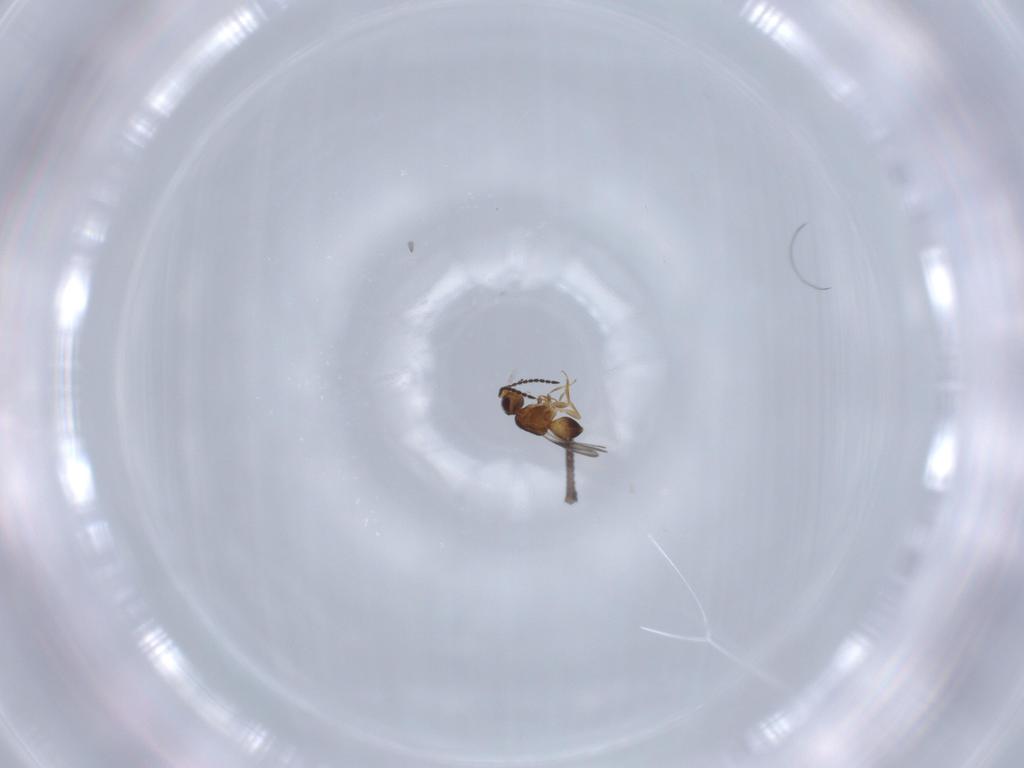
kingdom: Animalia
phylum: Arthropoda
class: Insecta
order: Hymenoptera
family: Ceraphronidae
